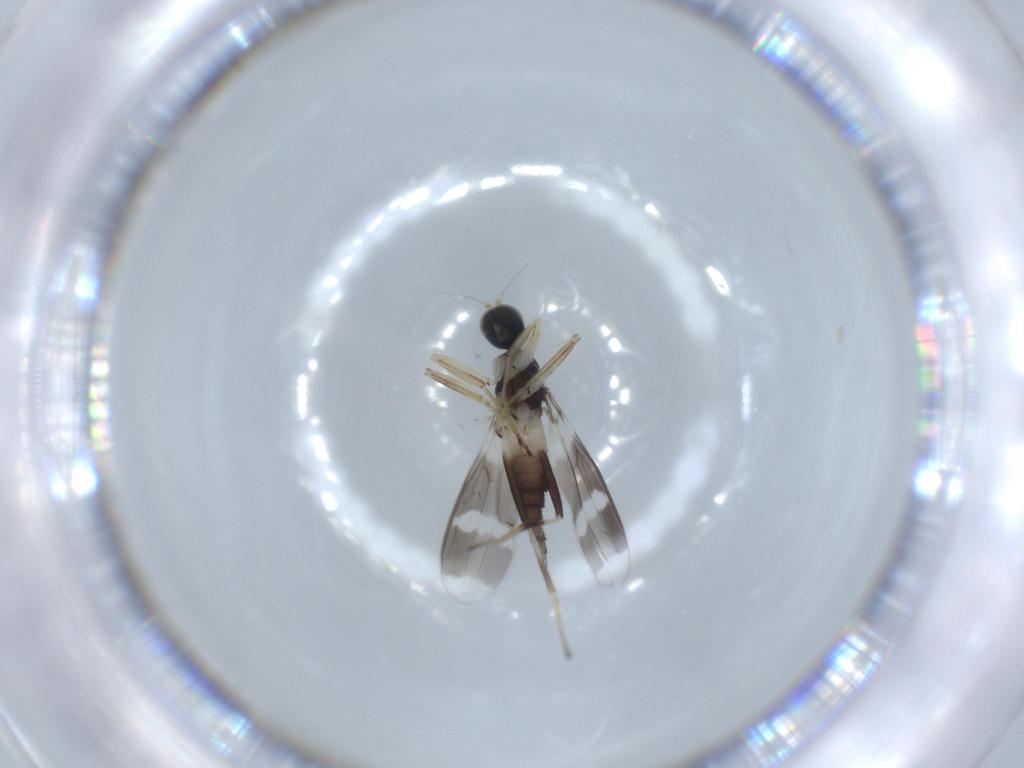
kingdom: Animalia
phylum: Arthropoda
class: Insecta
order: Diptera
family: Hybotidae
